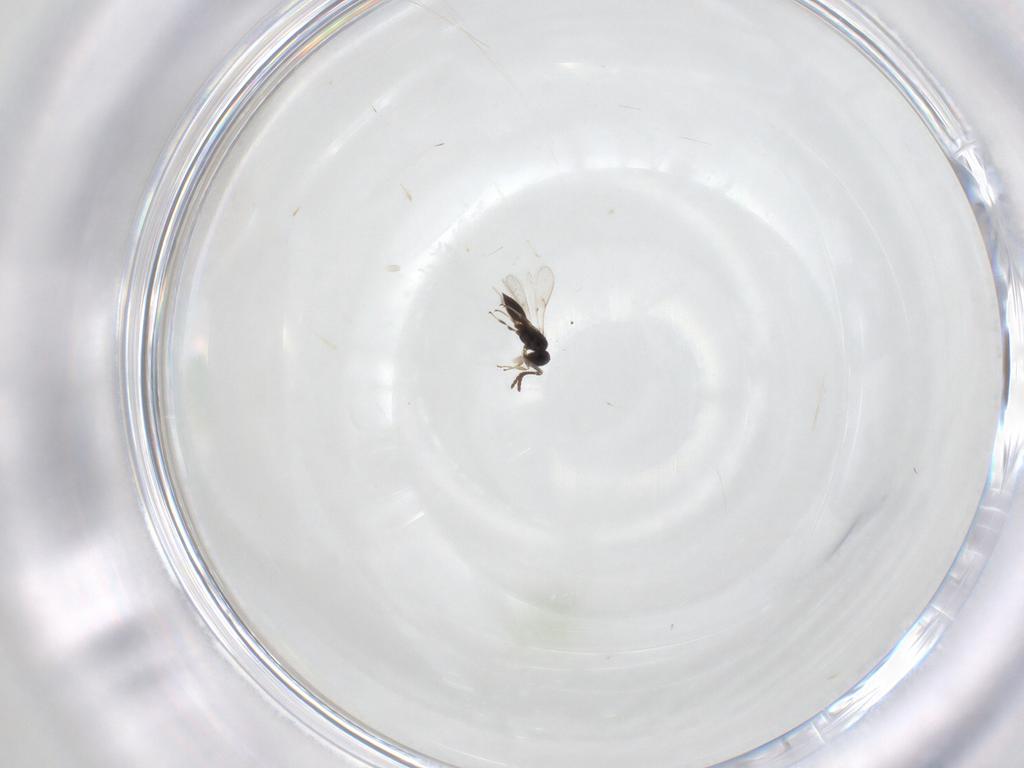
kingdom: Animalia
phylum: Arthropoda
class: Insecta
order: Hymenoptera
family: Scelionidae
